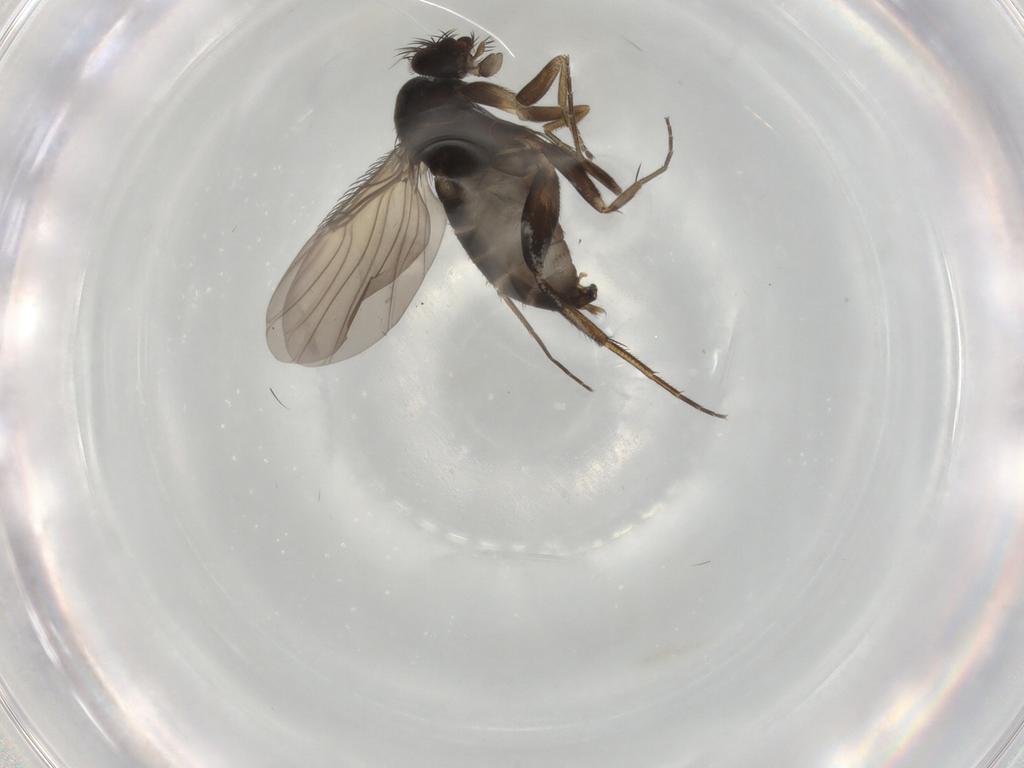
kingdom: Animalia
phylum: Arthropoda
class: Insecta
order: Diptera
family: Phoridae
